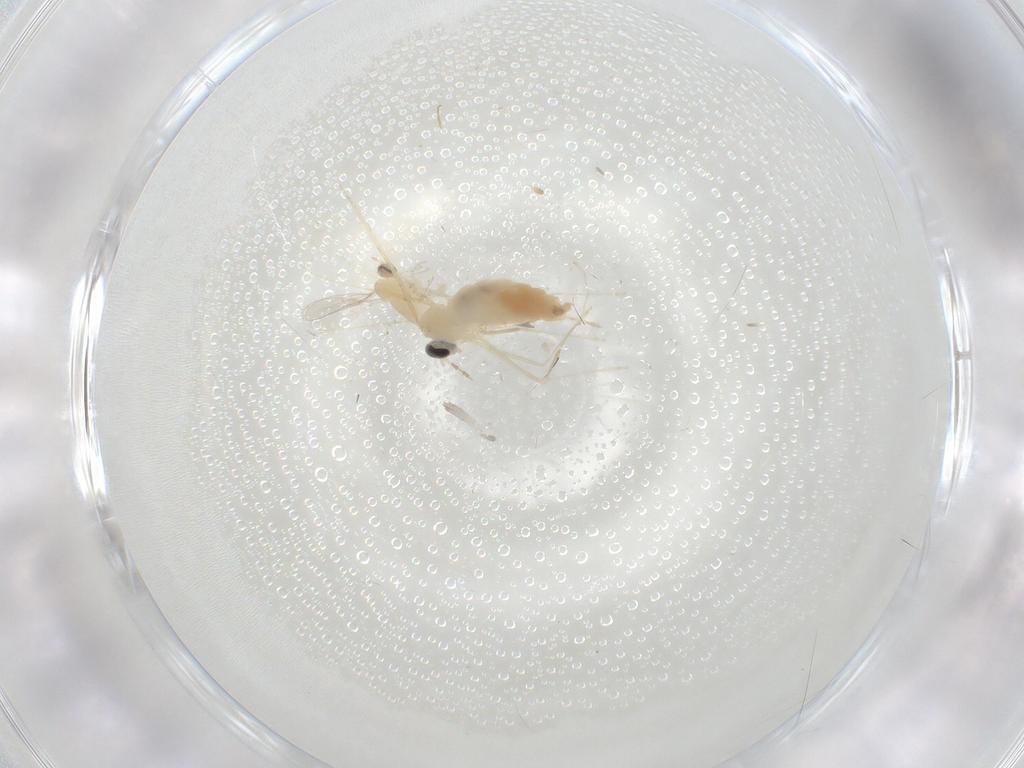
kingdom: Animalia
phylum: Arthropoda
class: Insecta
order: Diptera
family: Cecidomyiidae
